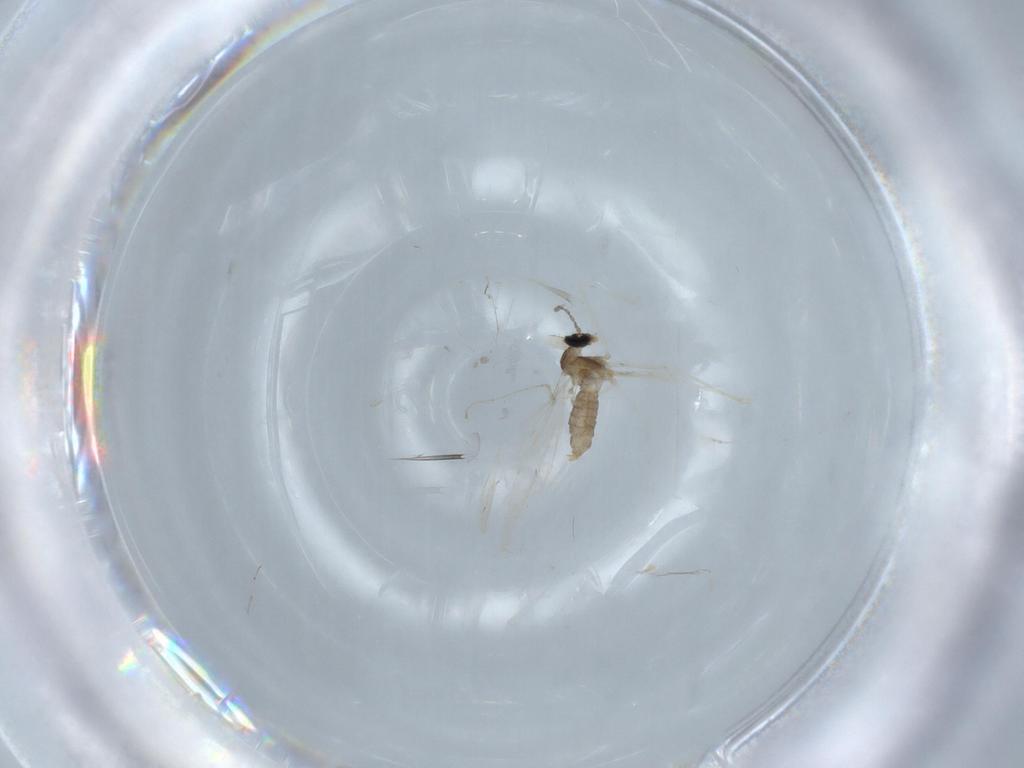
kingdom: Animalia
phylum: Arthropoda
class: Insecta
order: Diptera
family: Cecidomyiidae
